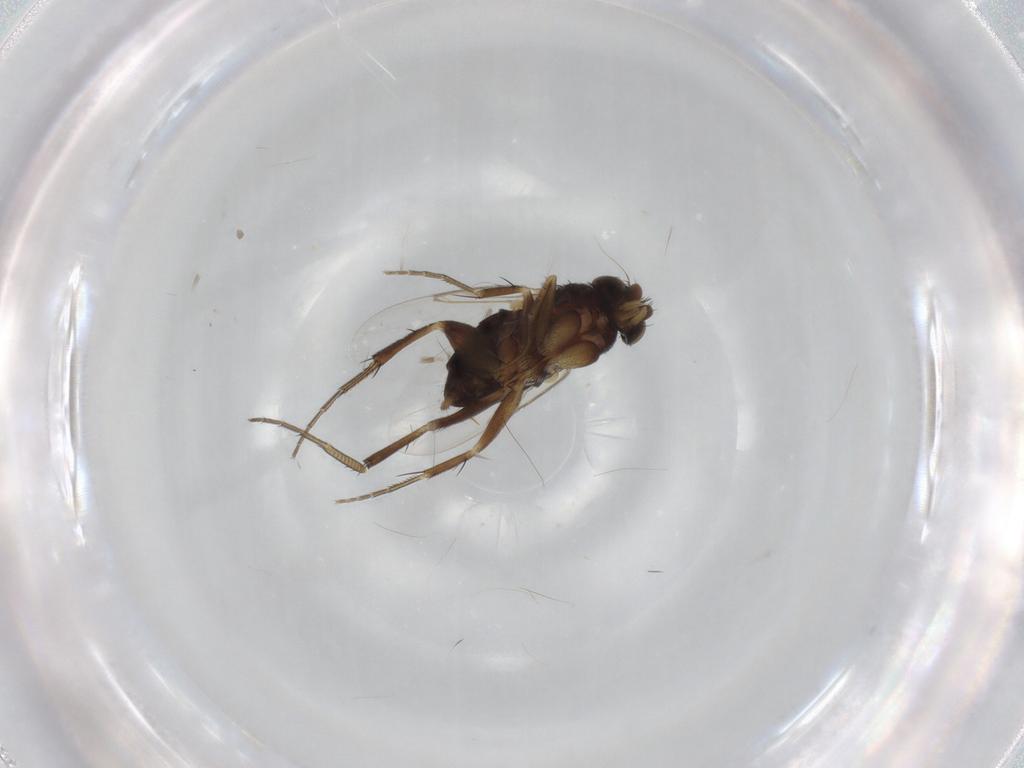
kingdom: Animalia
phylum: Arthropoda
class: Insecta
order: Diptera
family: Phoridae
